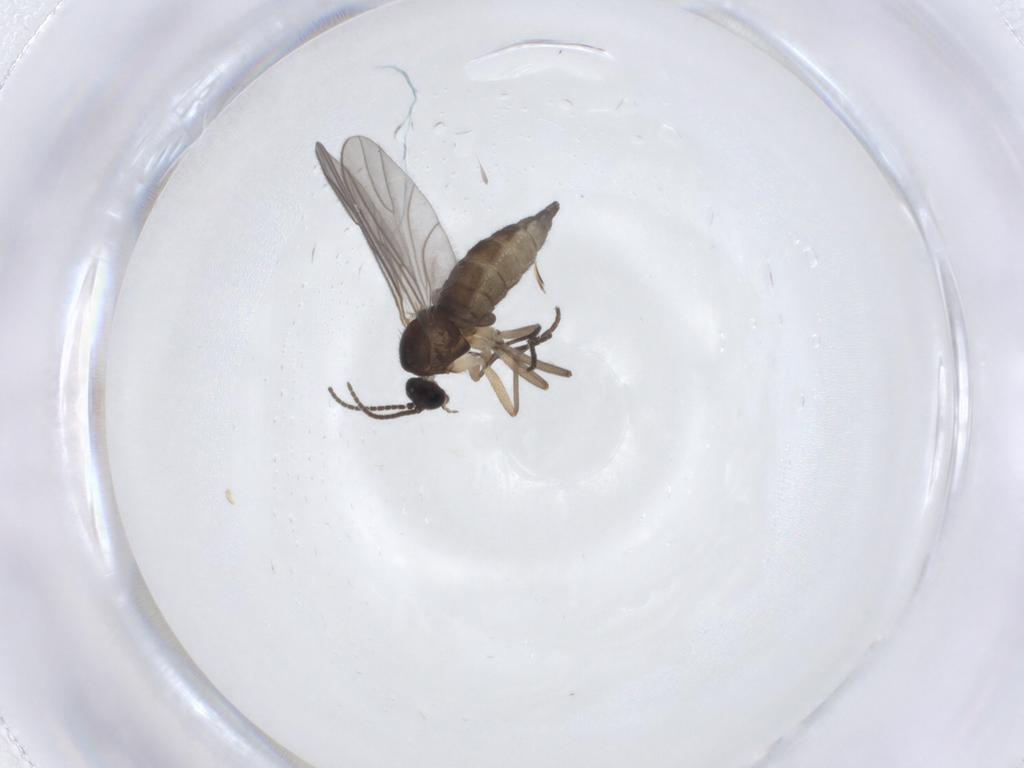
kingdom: Animalia
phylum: Arthropoda
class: Insecta
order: Diptera
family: Sciaridae
